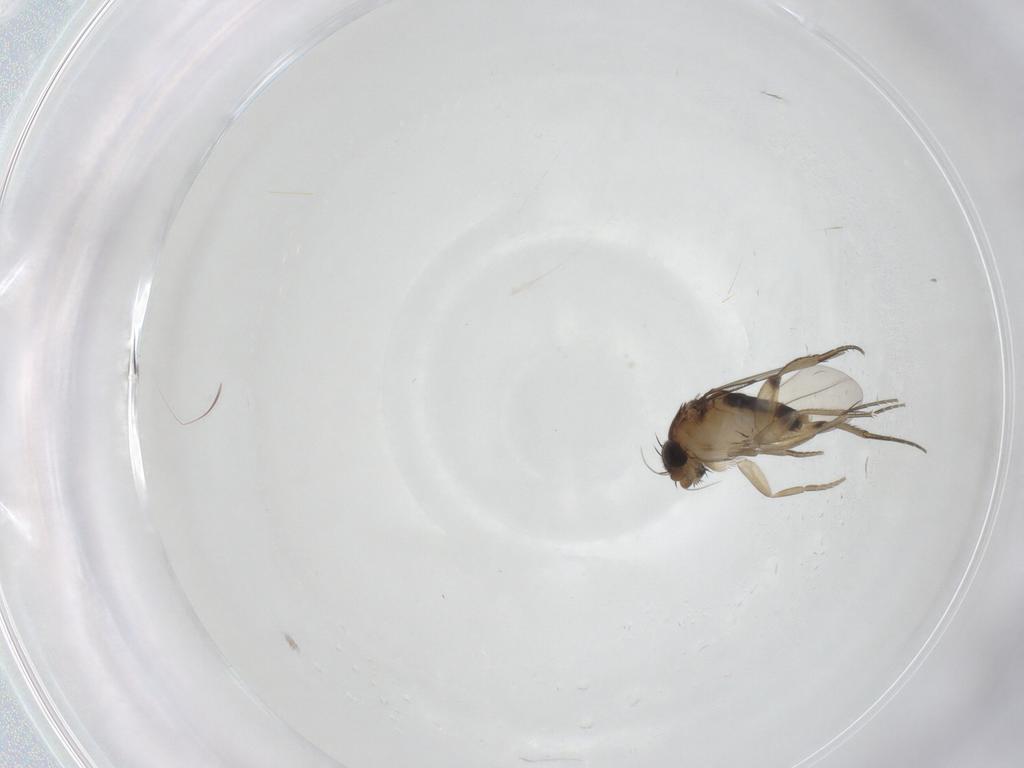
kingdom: Animalia
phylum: Arthropoda
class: Insecta
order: Diptera
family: Phoridae
